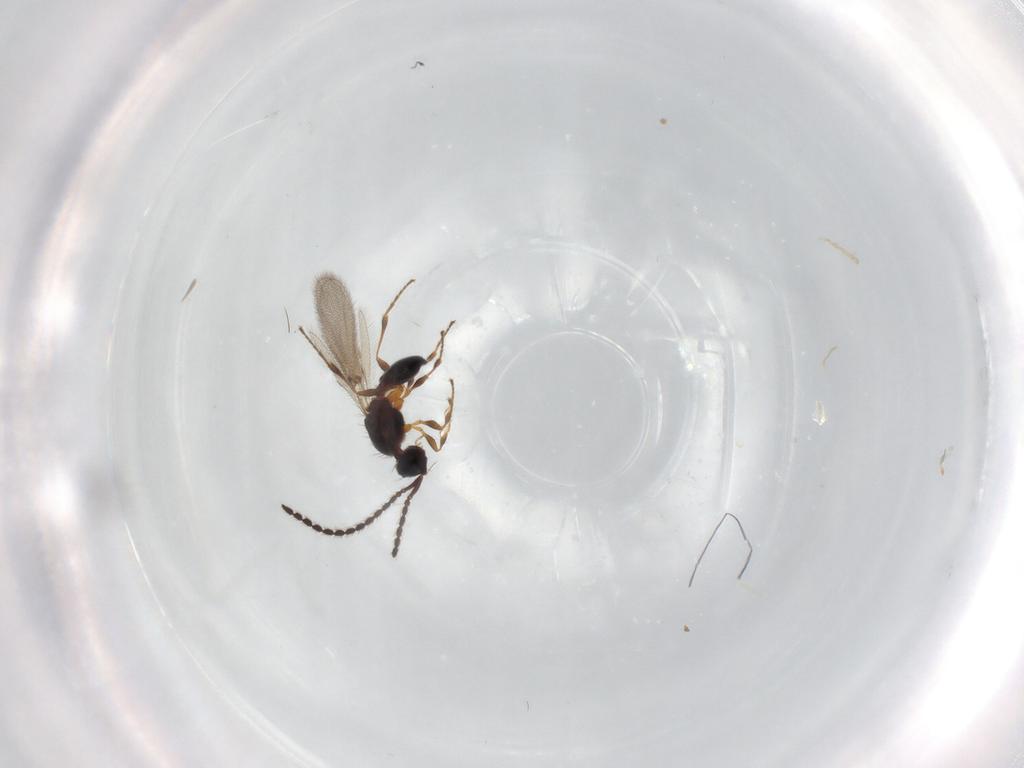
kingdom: Animalia
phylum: Arthropoda
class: Insecta
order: Hymenoptera
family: Diapriidae
